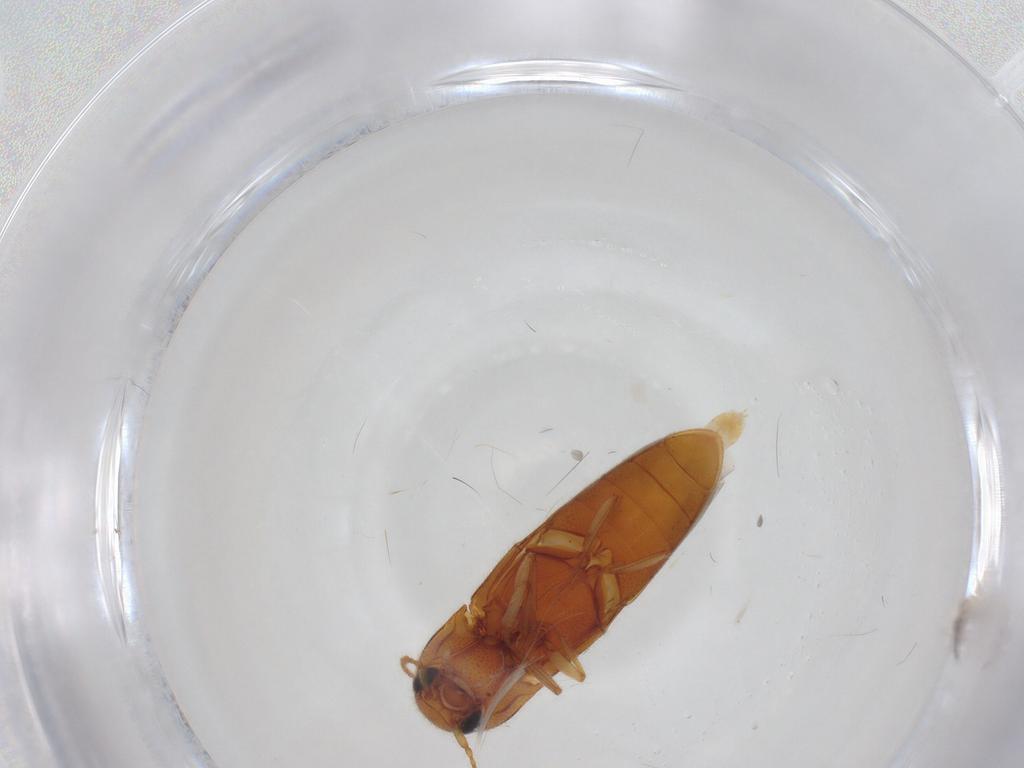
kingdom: Animalia
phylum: Arthropoda
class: Insecta
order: Coleoptera
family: Elateridae
